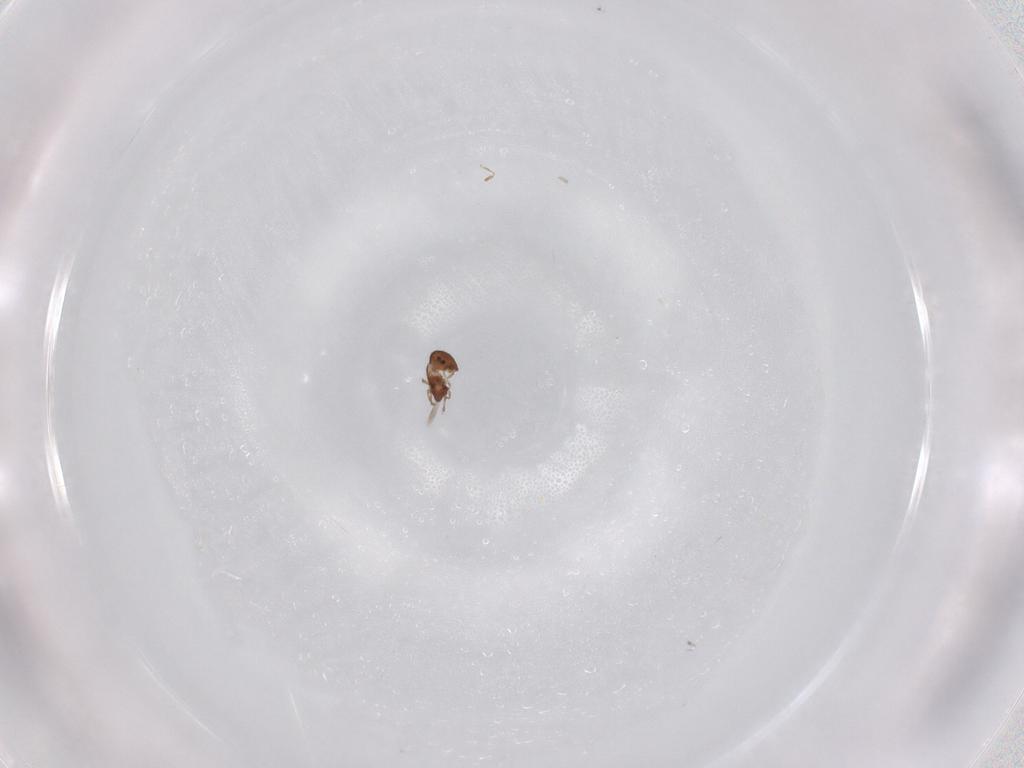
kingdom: Animalia
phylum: Arthropoda
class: Arachnida
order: Sarcoptiformes
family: Dendroeremaeidae
